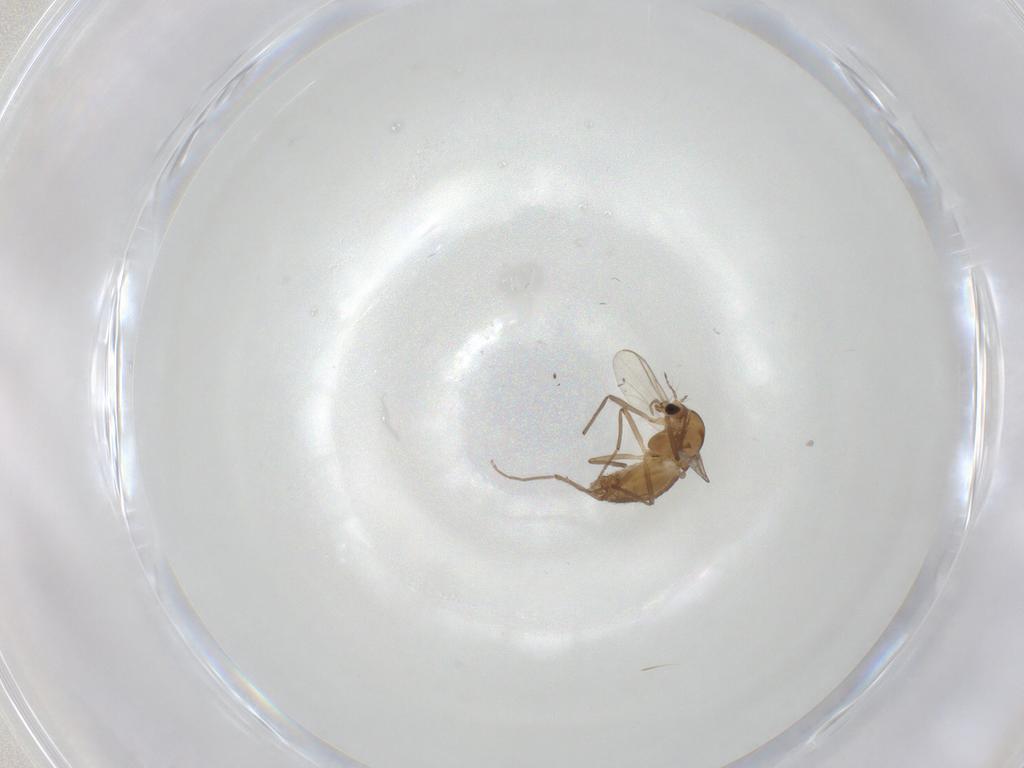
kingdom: Animalia
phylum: Arthropoda
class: Insecta
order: Diptera
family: Chironomidae
